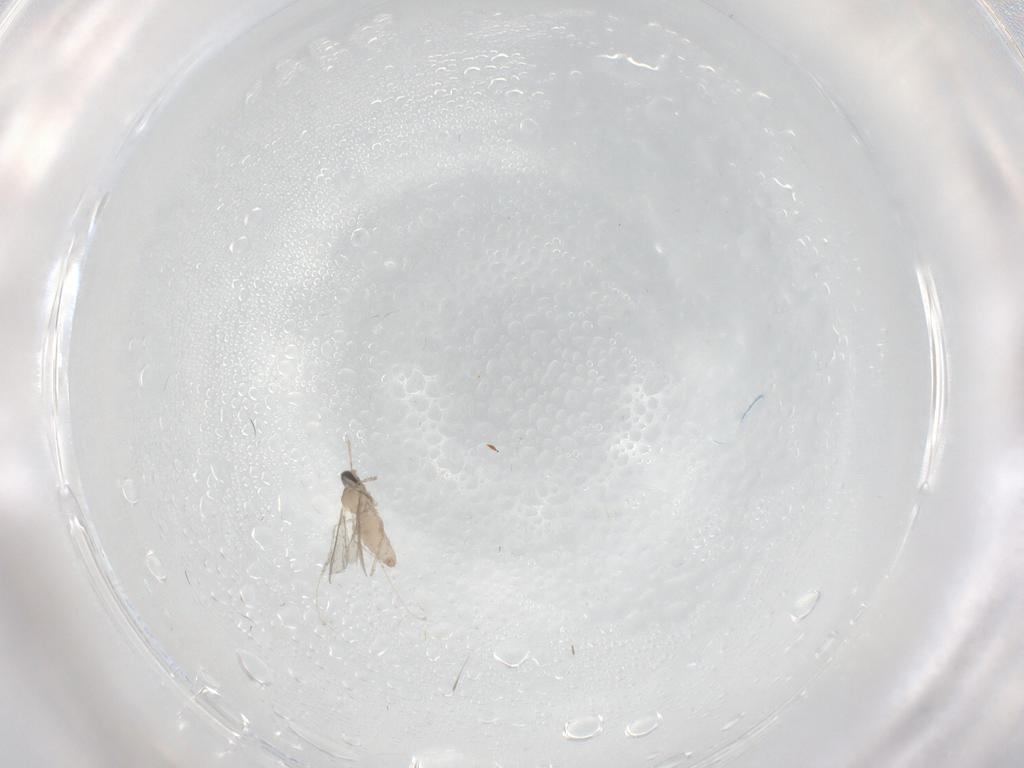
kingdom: Animalia
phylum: Arthropoda
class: Insecta
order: Diptera
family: Cecidomyiidae
